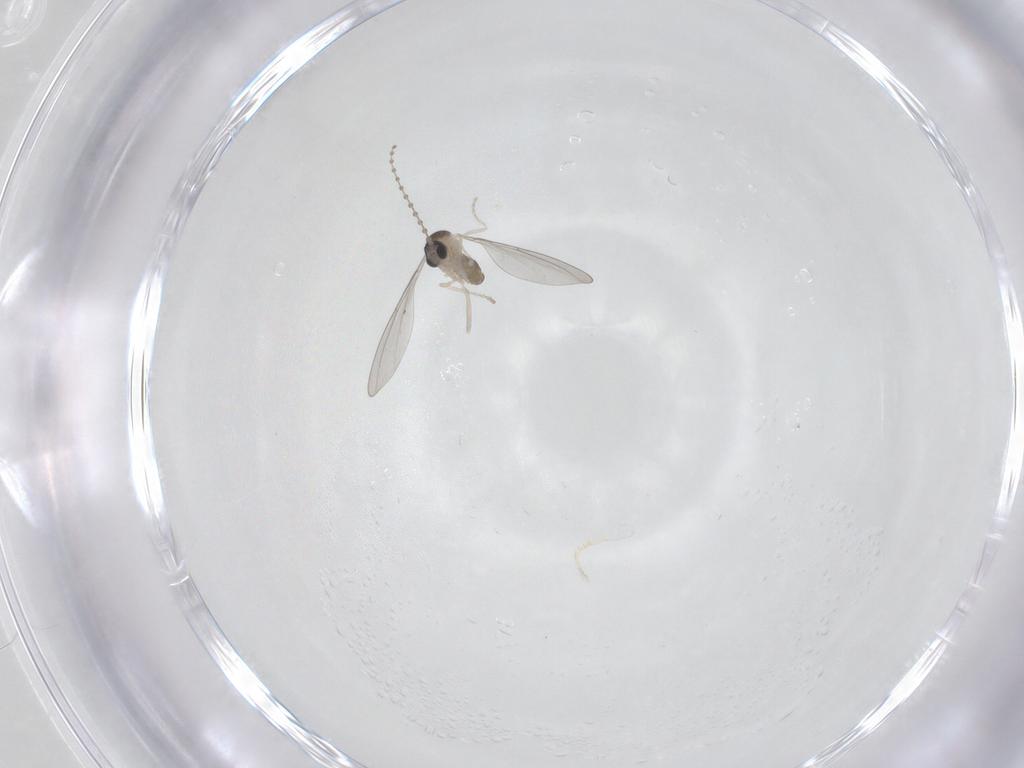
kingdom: Animalia
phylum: Arthropoda
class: Insecta
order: Diptera
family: Cecidomyiidae
